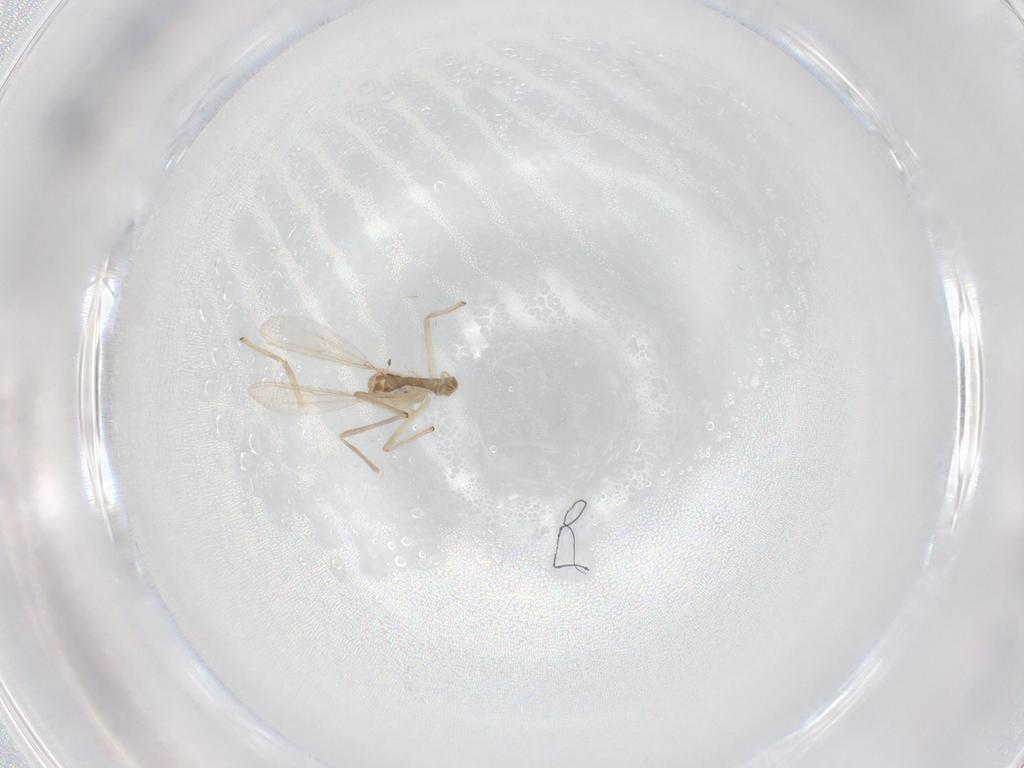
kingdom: Animalia
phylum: Arthropoda
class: Insecta
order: Diptera
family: Chironomidae
